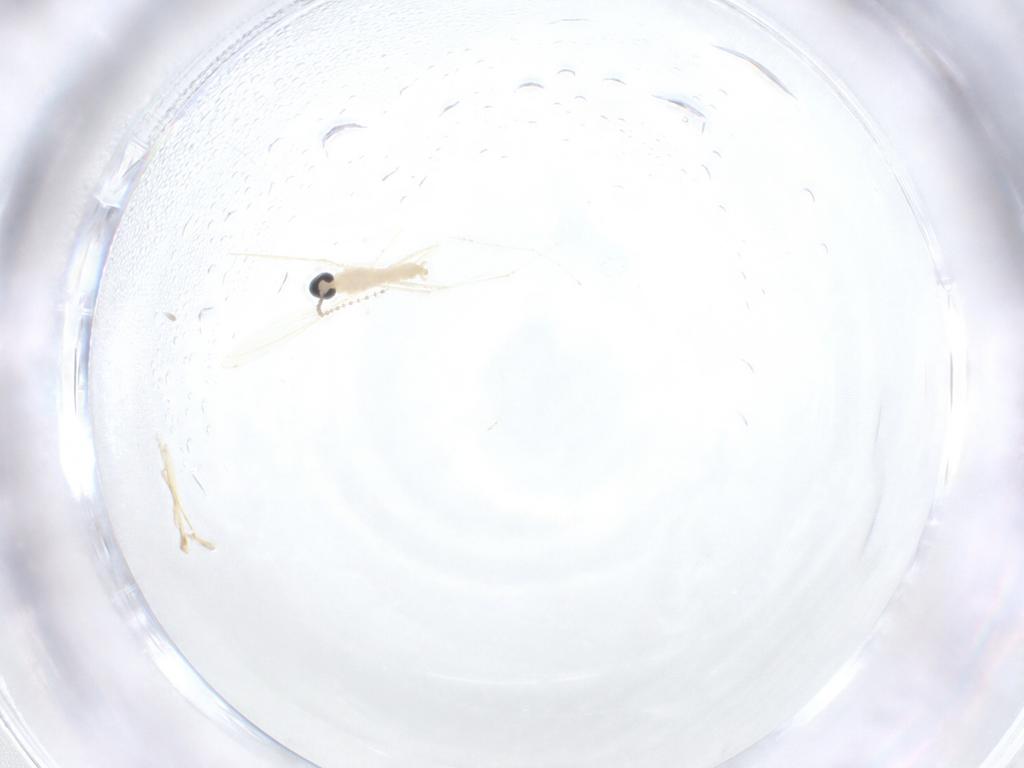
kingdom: Animalia
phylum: Arthropoda
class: Insecta
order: Diptera
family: Cecidomyiidae
